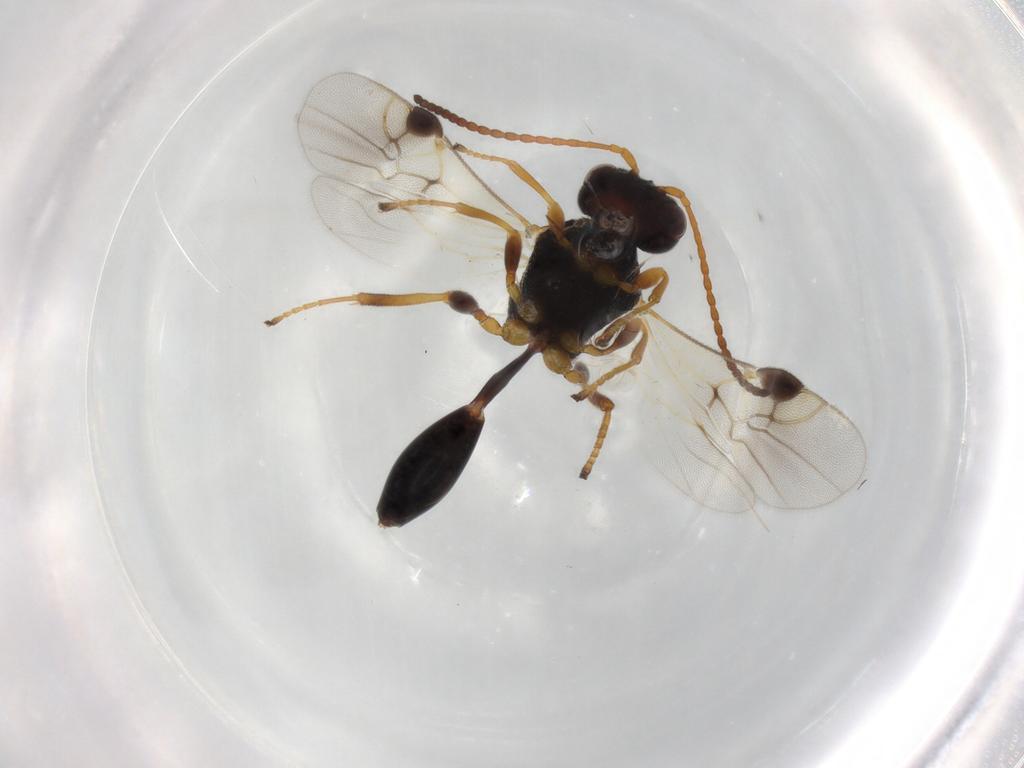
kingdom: Animalia
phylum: Arthropoda
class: Insecta
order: Hymenoptera
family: Braconidae
